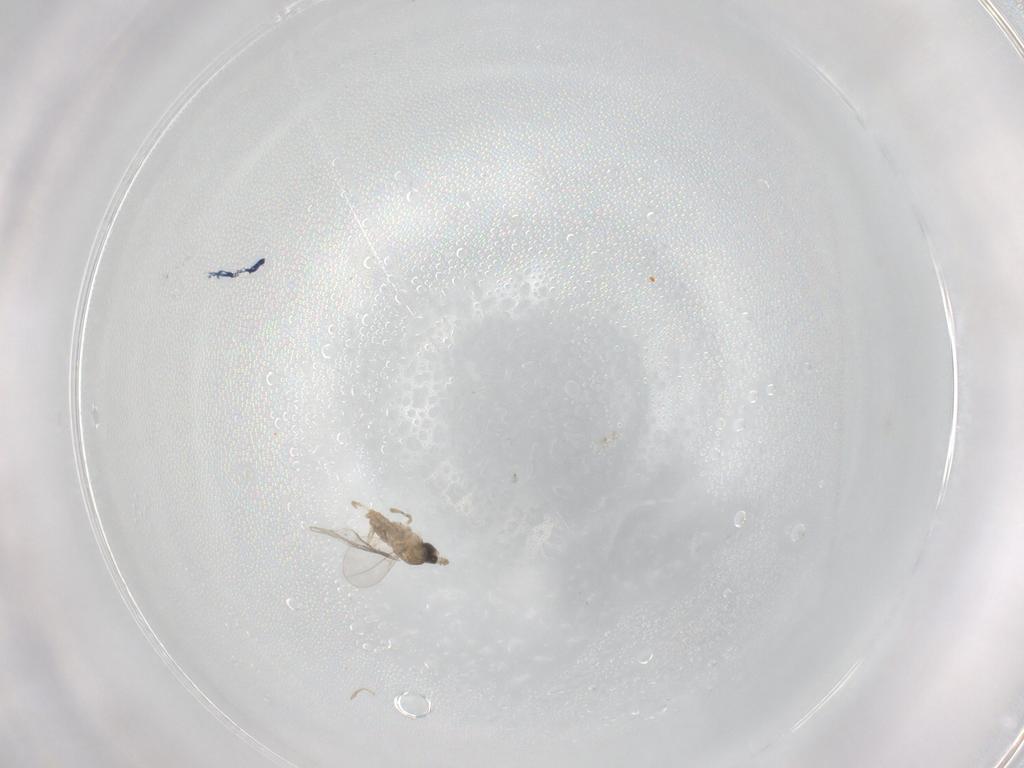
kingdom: Animalia
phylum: Arthropoda
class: Insecta
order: Diptera
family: Cecidomyiidae
